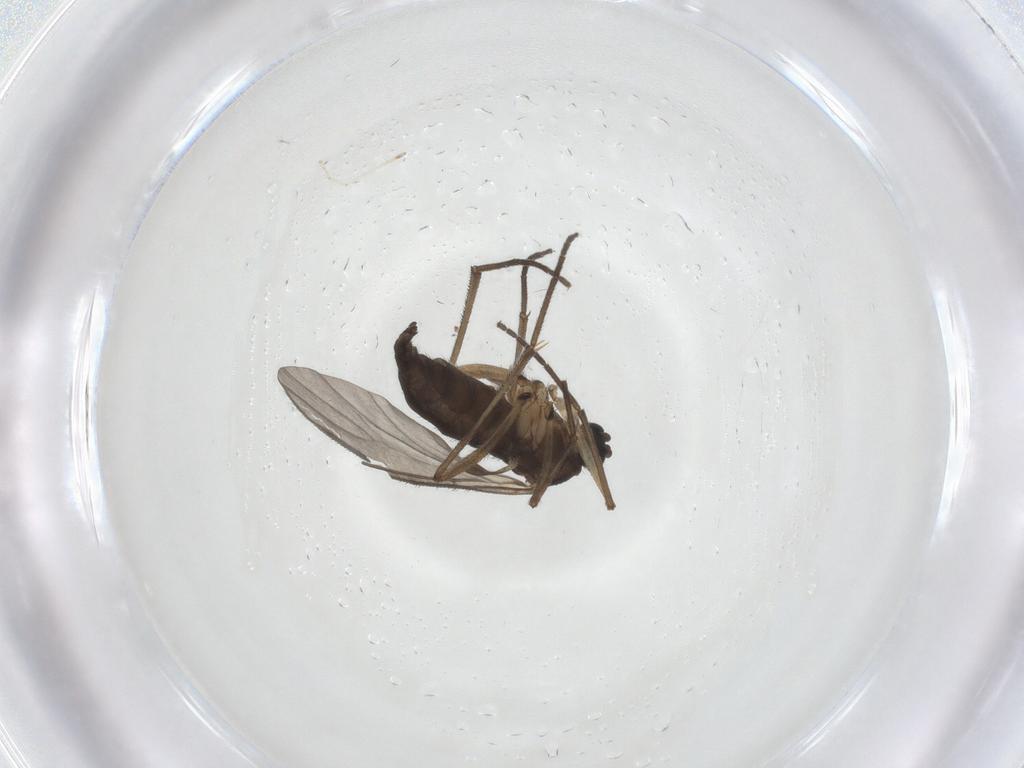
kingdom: Animalia
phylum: Arthropoda
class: Insecta
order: Diptera
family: Sciaridae
